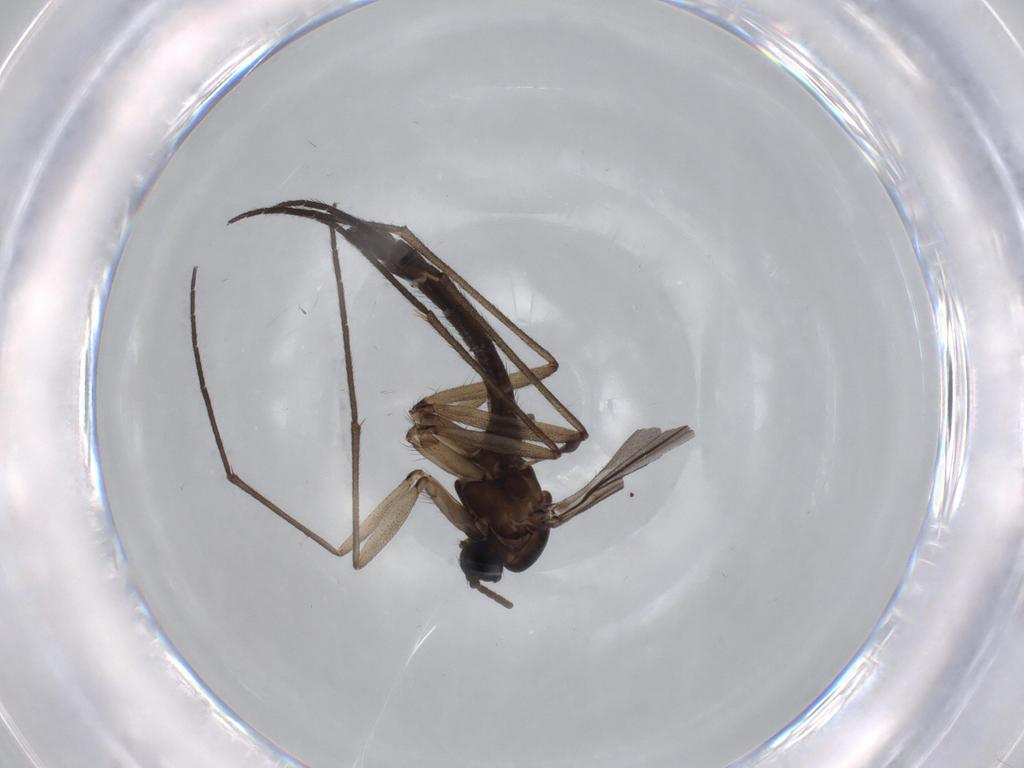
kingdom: Animalia
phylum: Arthropoda
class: Insecta
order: Diptera
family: Sciaridae
